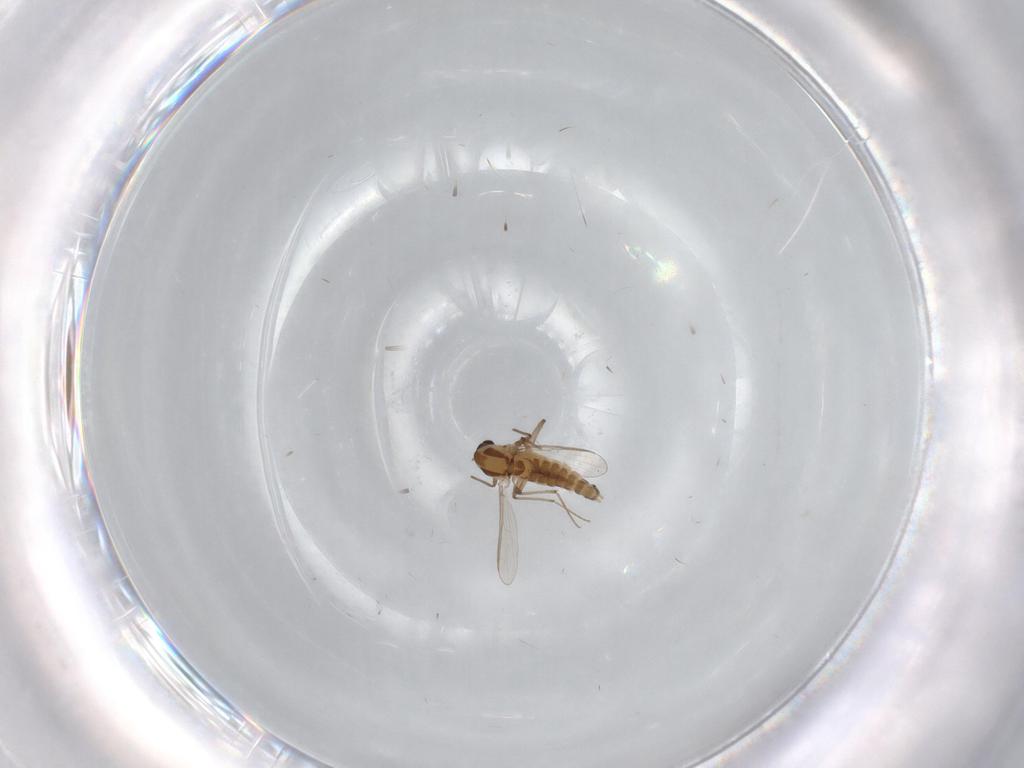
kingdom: Animalia
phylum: Arthropoda
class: Insecta
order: Diptera
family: Chironomidae
